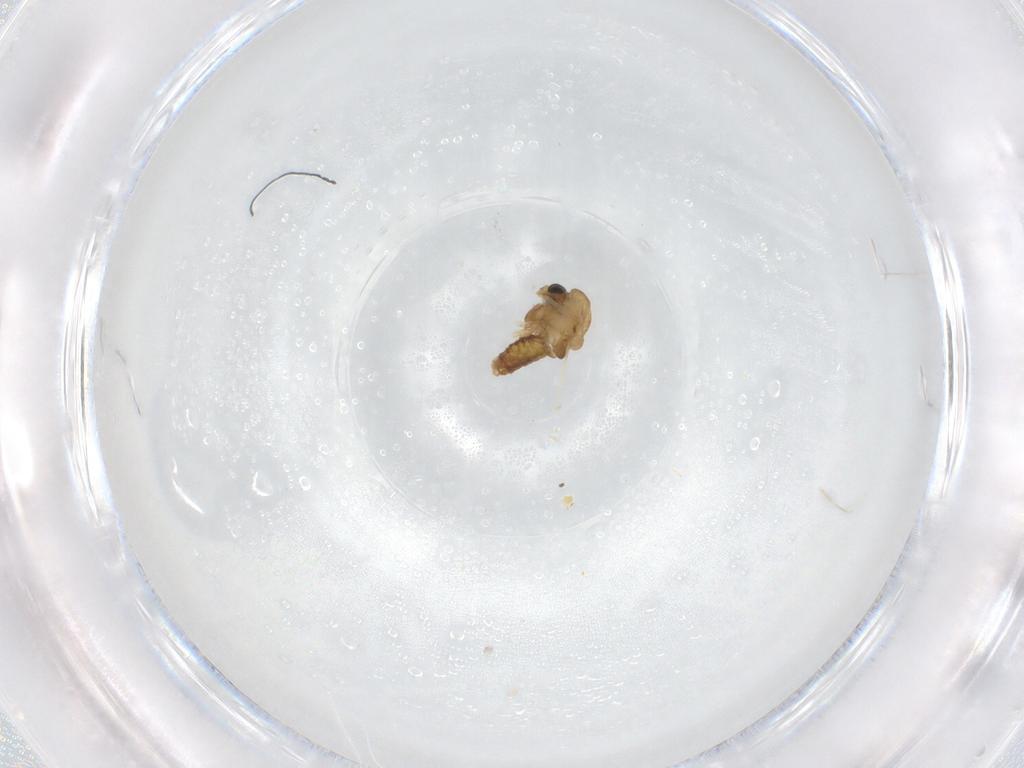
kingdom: Animalia
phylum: Arthropoda
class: Insecta
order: Diptera
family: Chironomidae
